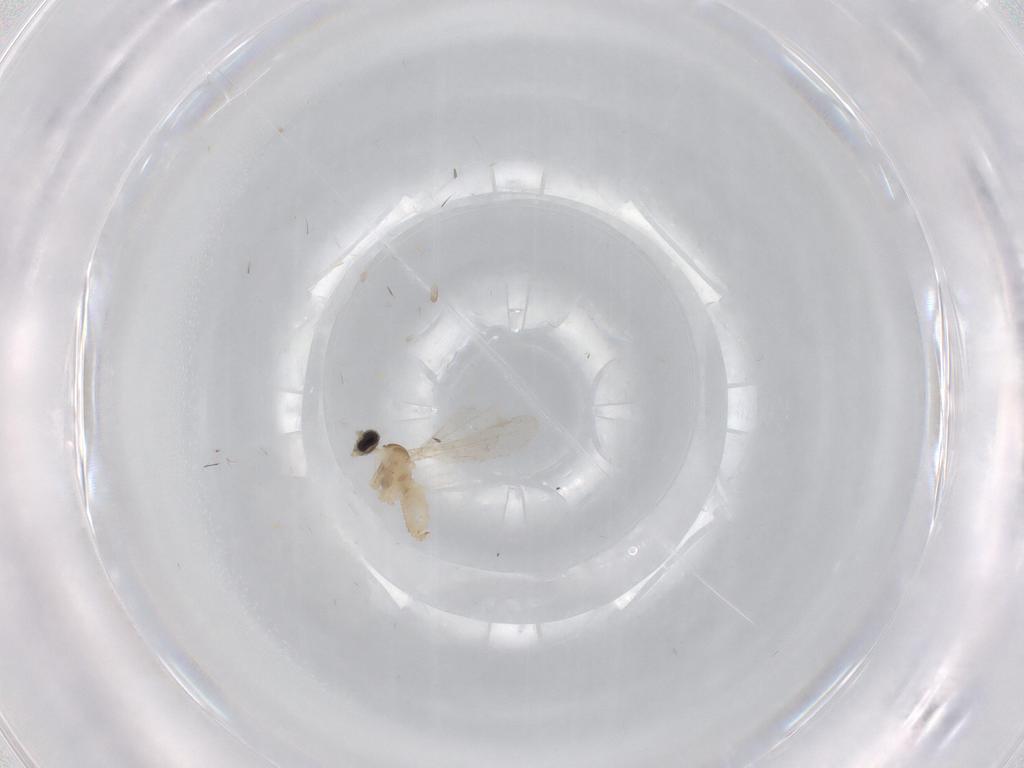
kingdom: Animalia
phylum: Arthropoda
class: Insecta
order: Diptera
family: Cecidomyiidae
